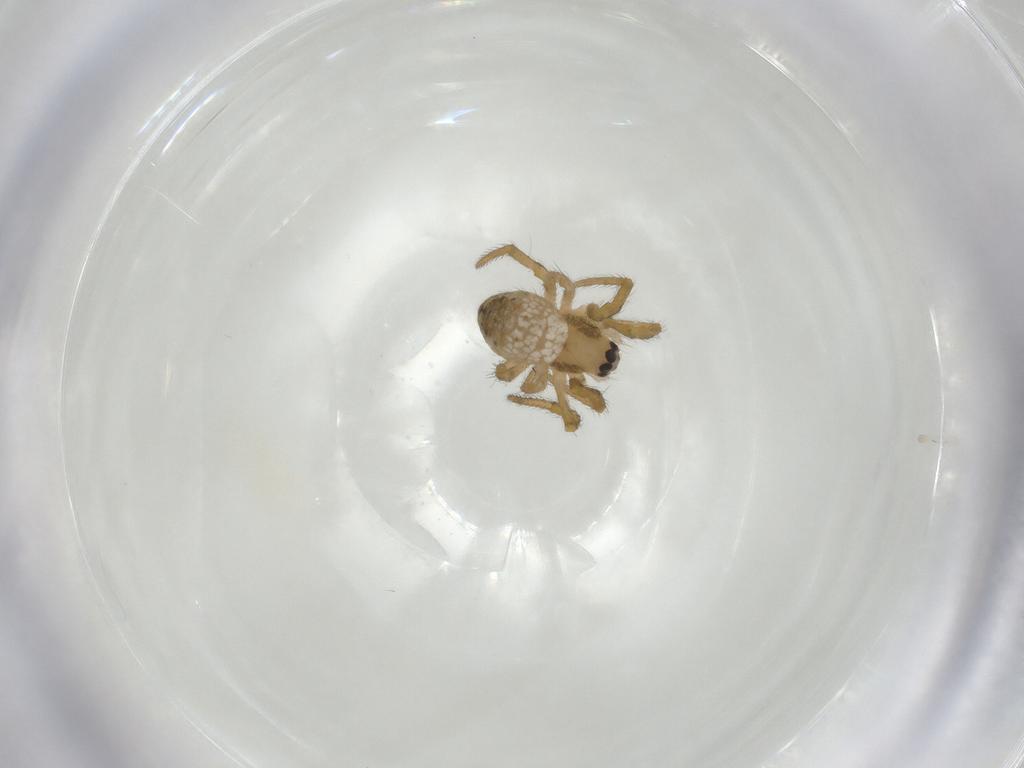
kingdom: Animalia
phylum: Arthropoda
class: Arachnida
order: Araneae
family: Araneidae
